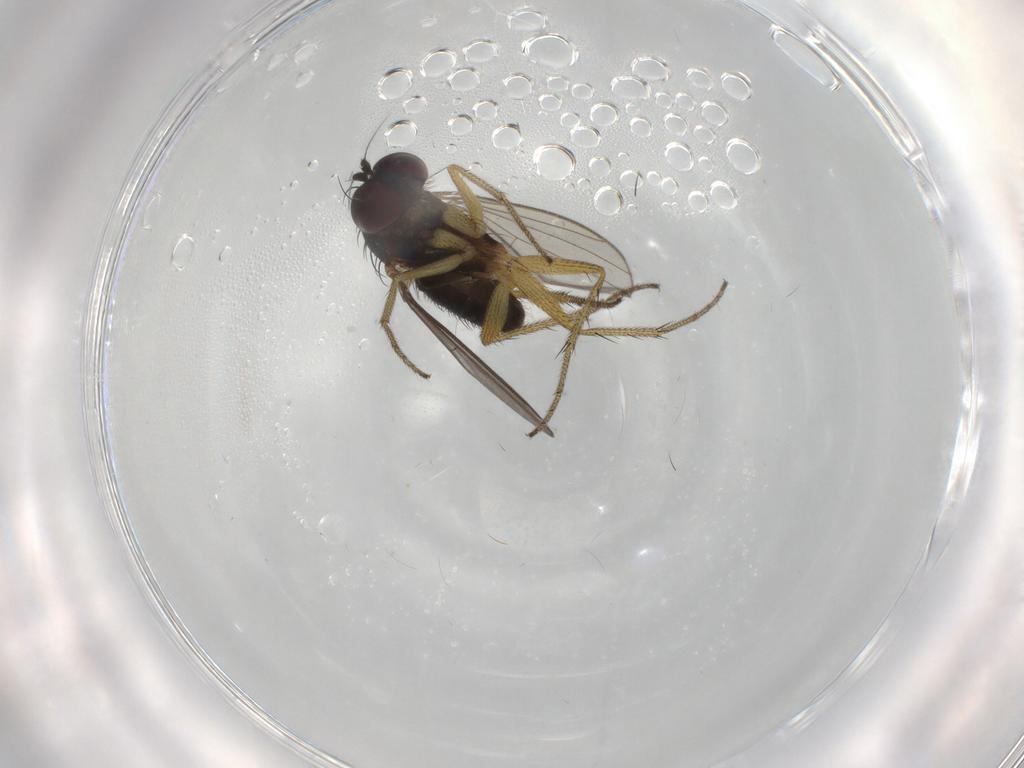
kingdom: Animalia
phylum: Arthropoda
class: Insecta
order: Diptera
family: Dolichopodidae
